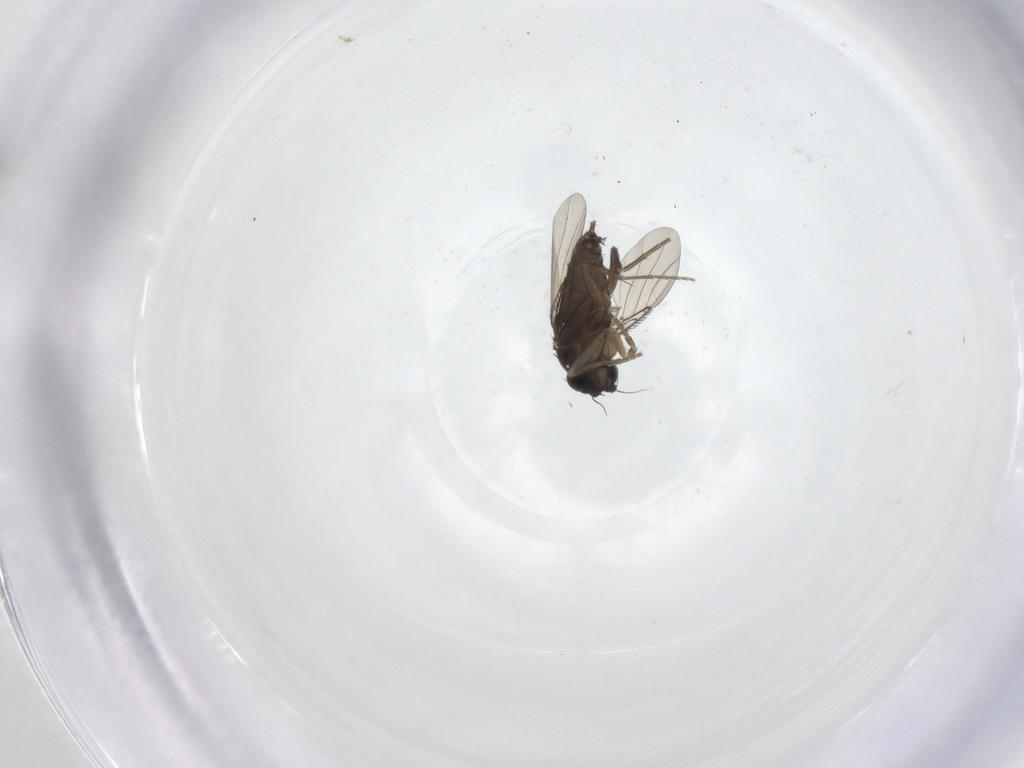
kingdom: Animalia
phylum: Arthropoda
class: Insecta
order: Diptera
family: Phoridae
